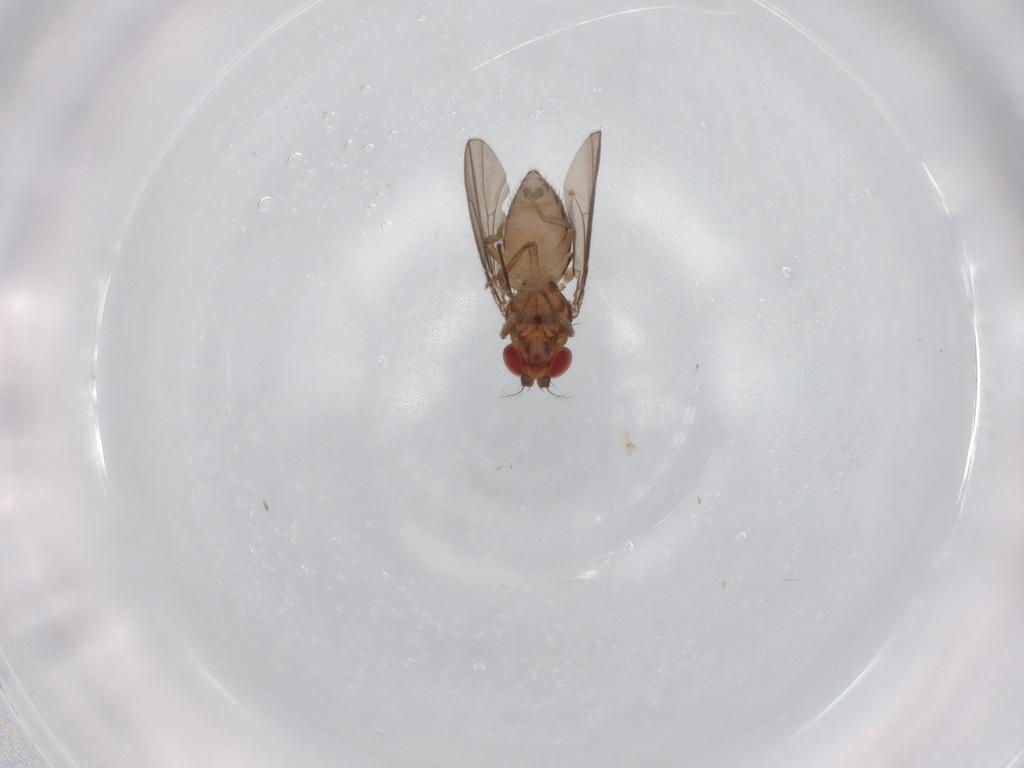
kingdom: Animalia
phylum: Arthropoda
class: Insecta
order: Diptera
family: Drosophilidae
